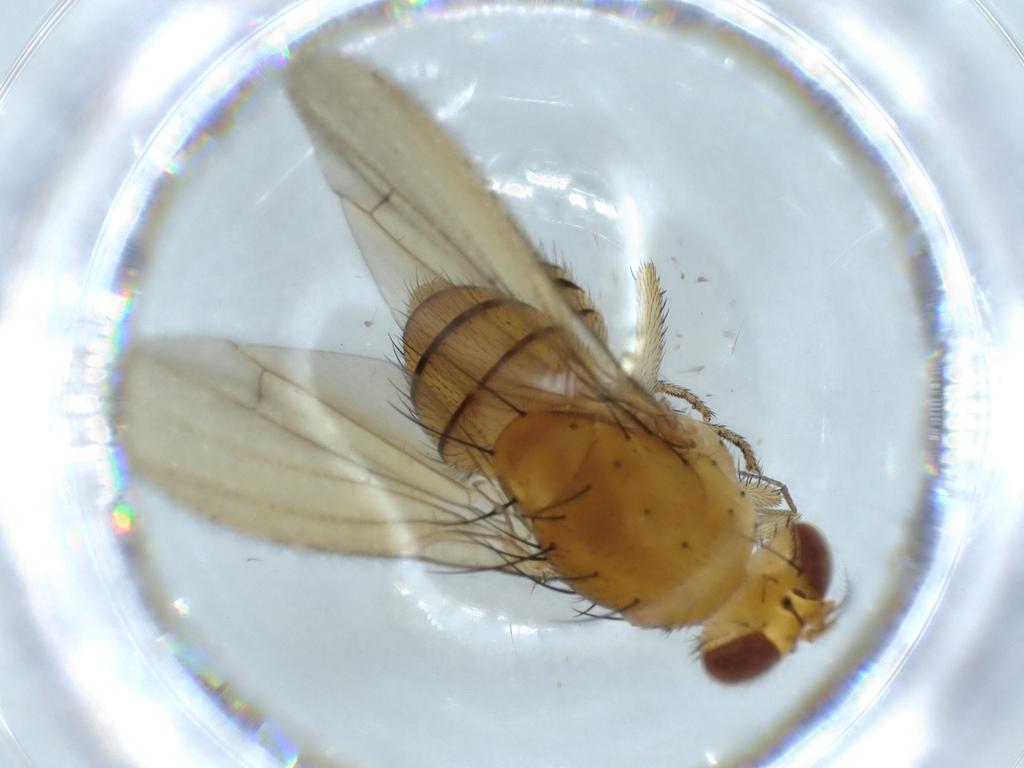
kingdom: Animalia
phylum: Arthropoda
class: Insecta
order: Diptera
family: Cecidomyiidae
